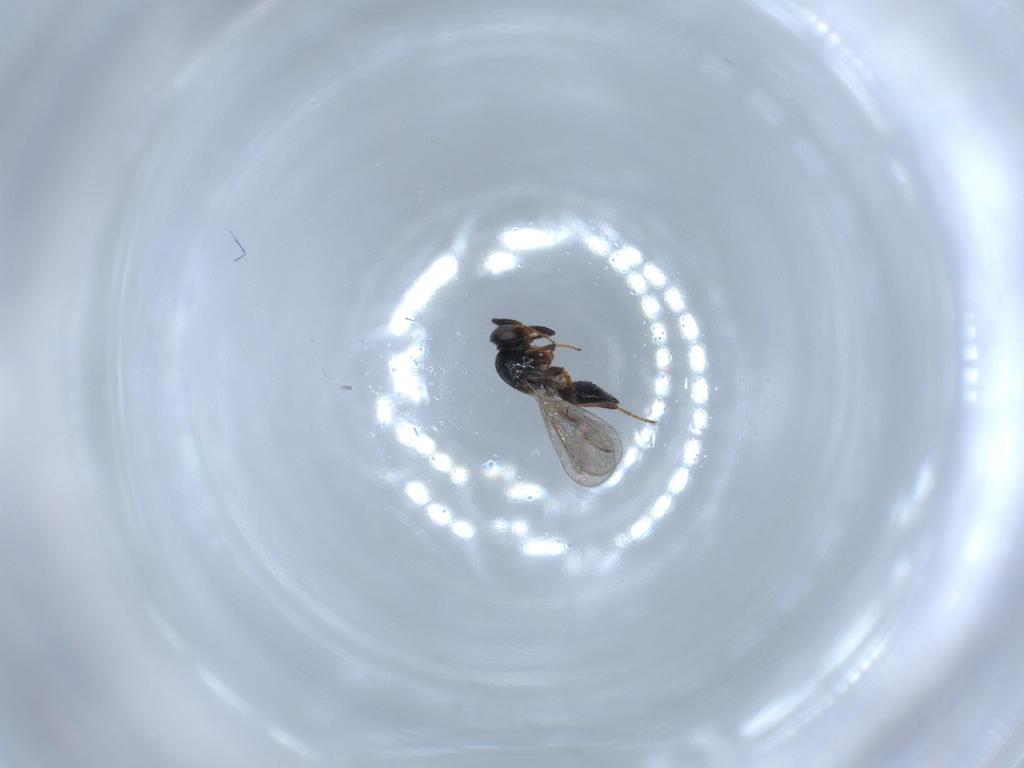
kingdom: Animalia
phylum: Arthropoda
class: Insecta
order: Hymenoptera
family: Platygastridae
